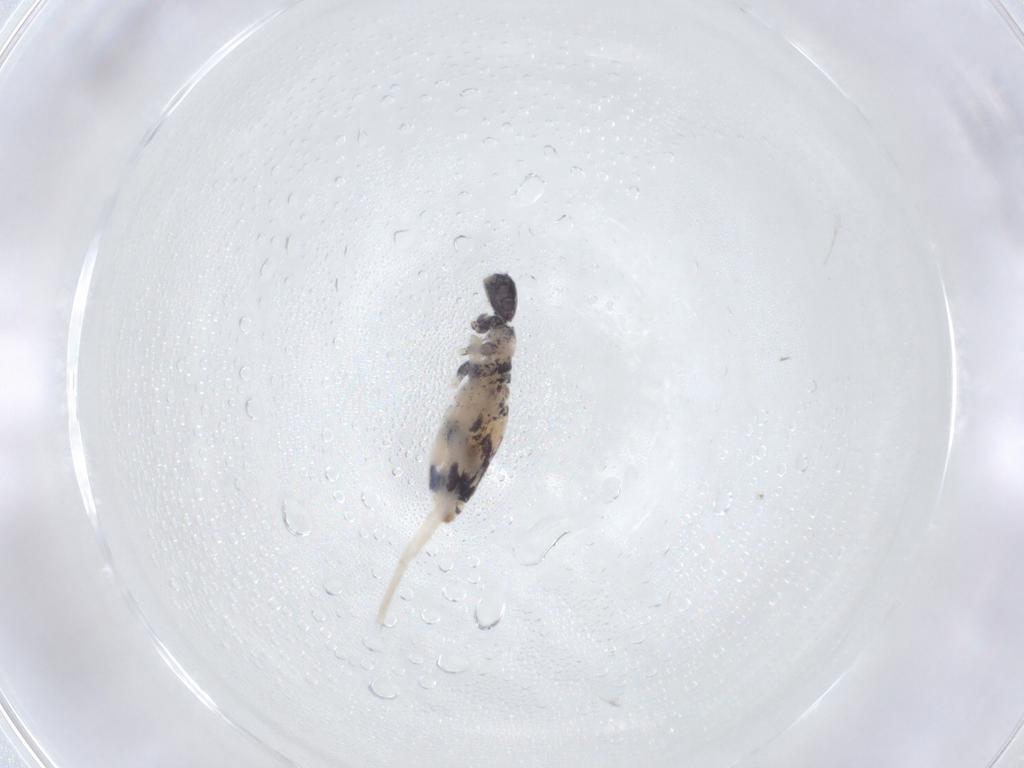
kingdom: Animalia
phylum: Arthropoda
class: Collembola
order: Entomobryomorpha
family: Entomobryidae
